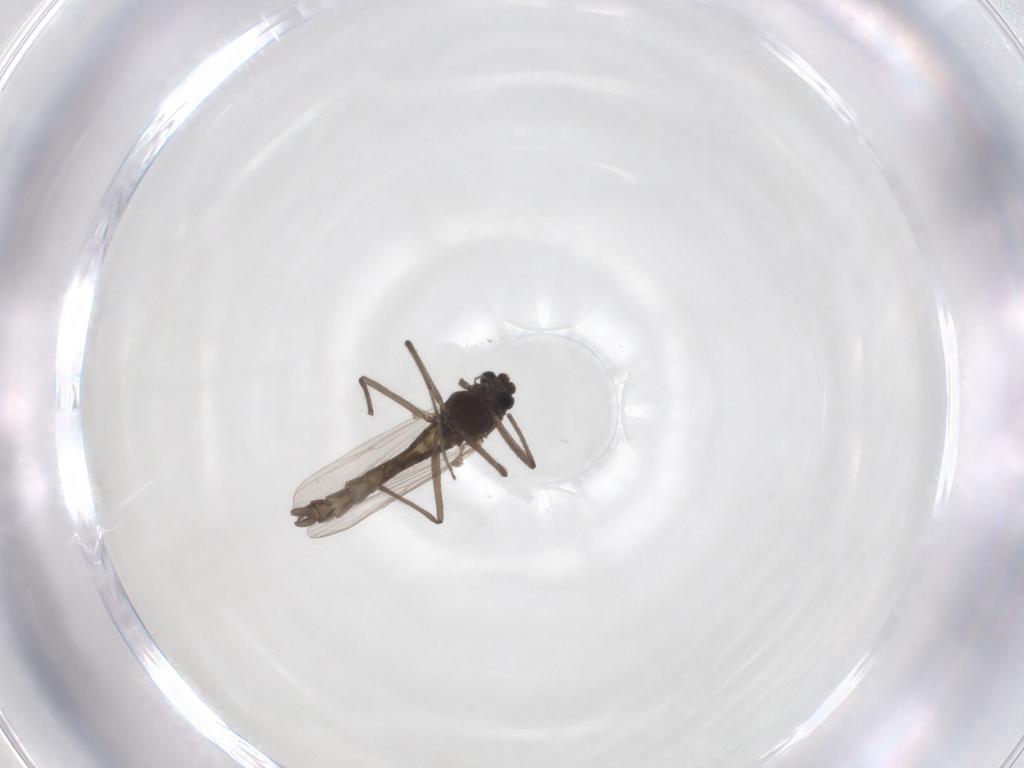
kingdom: Animalia
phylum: Arthropoda
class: Insecta
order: Diptera
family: Chironomidae
